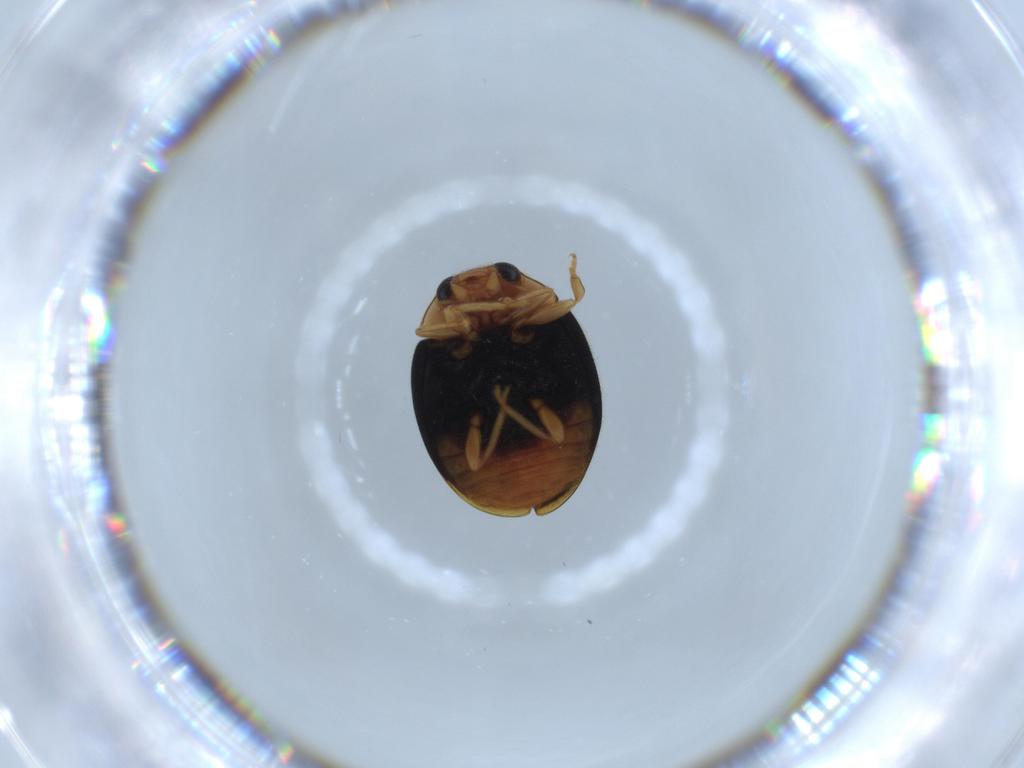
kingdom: Animalia
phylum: Arthropoda
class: Insecta
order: Coleoptera
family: Coccinellidae
